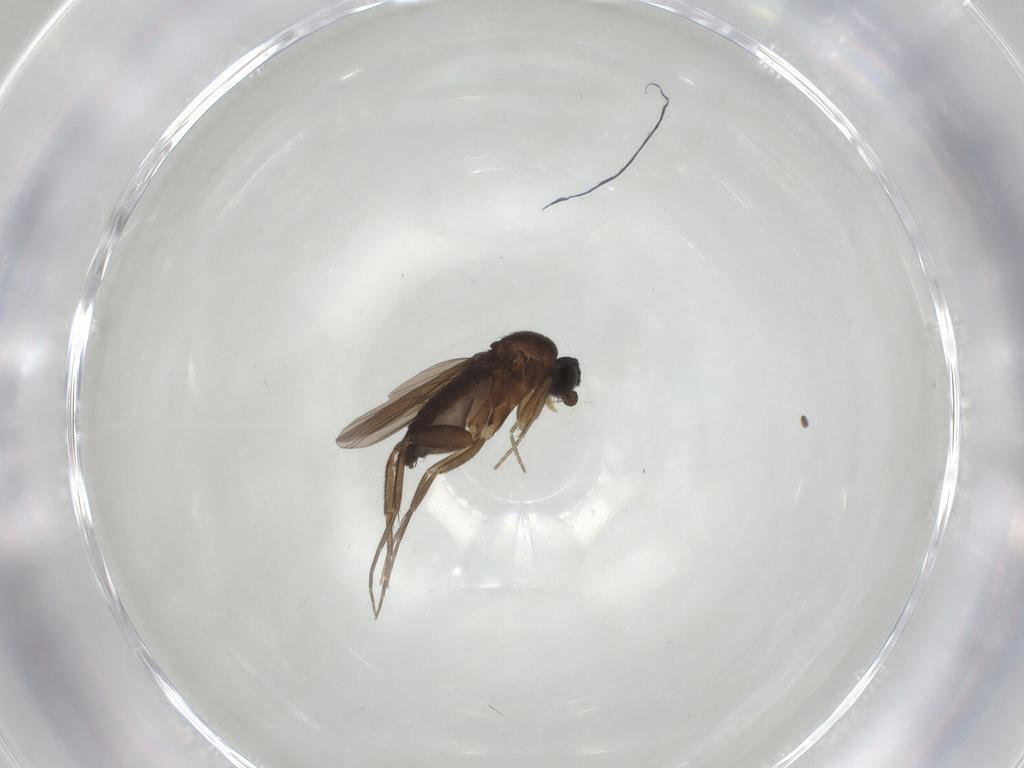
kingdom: Animalia
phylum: Arthropoda
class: Insecta
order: Diptera
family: Phoridae
